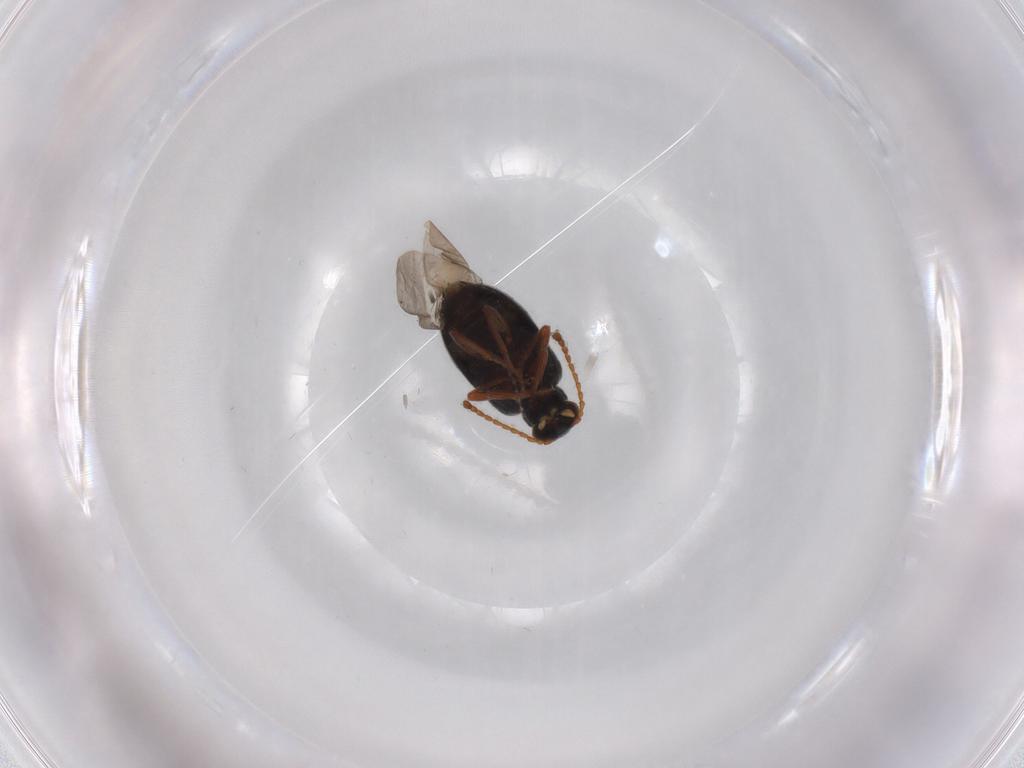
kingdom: Animalia
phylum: Arthropoda
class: Insecta
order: Coleoptera
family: Aderidae
